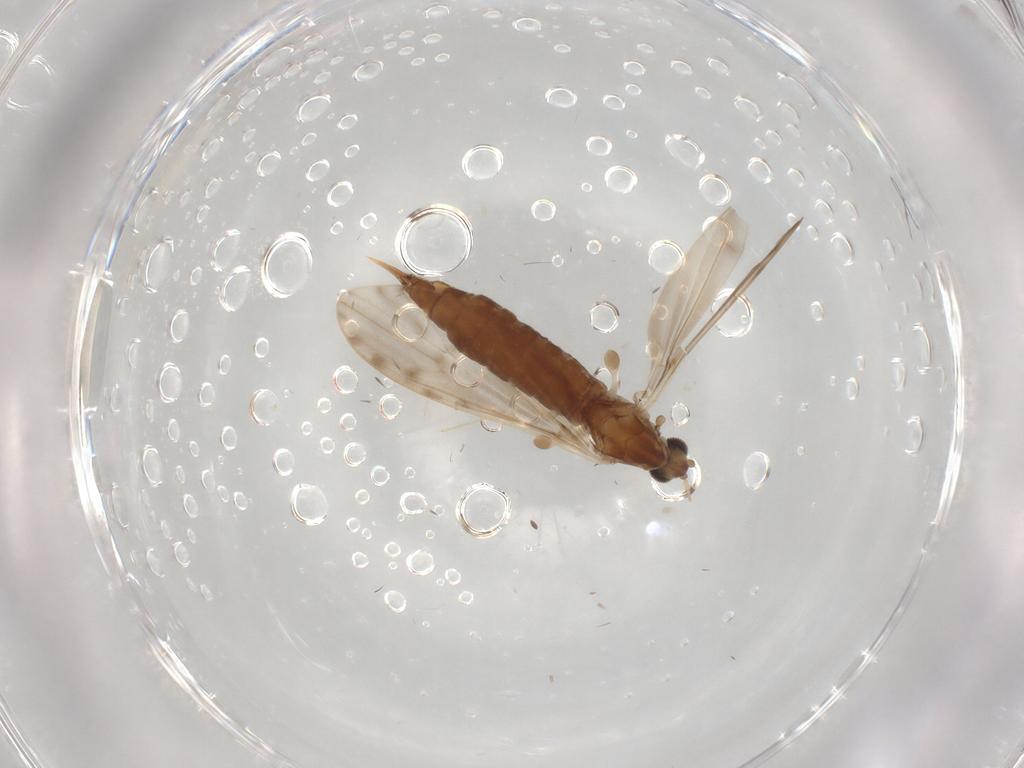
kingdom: Animalia
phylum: Arthropoda
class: Insecta
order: Diptera
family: Limoniidae
